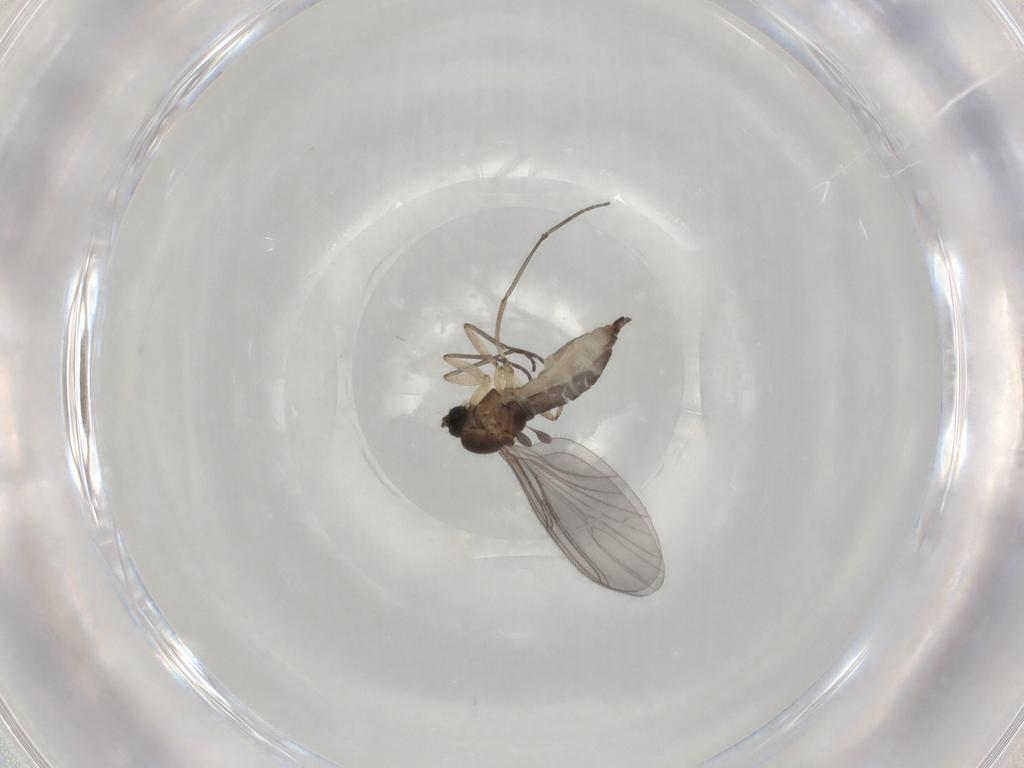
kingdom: Animalia
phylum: Arthropoda
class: Insecta
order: Diptera
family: Sciaridae
